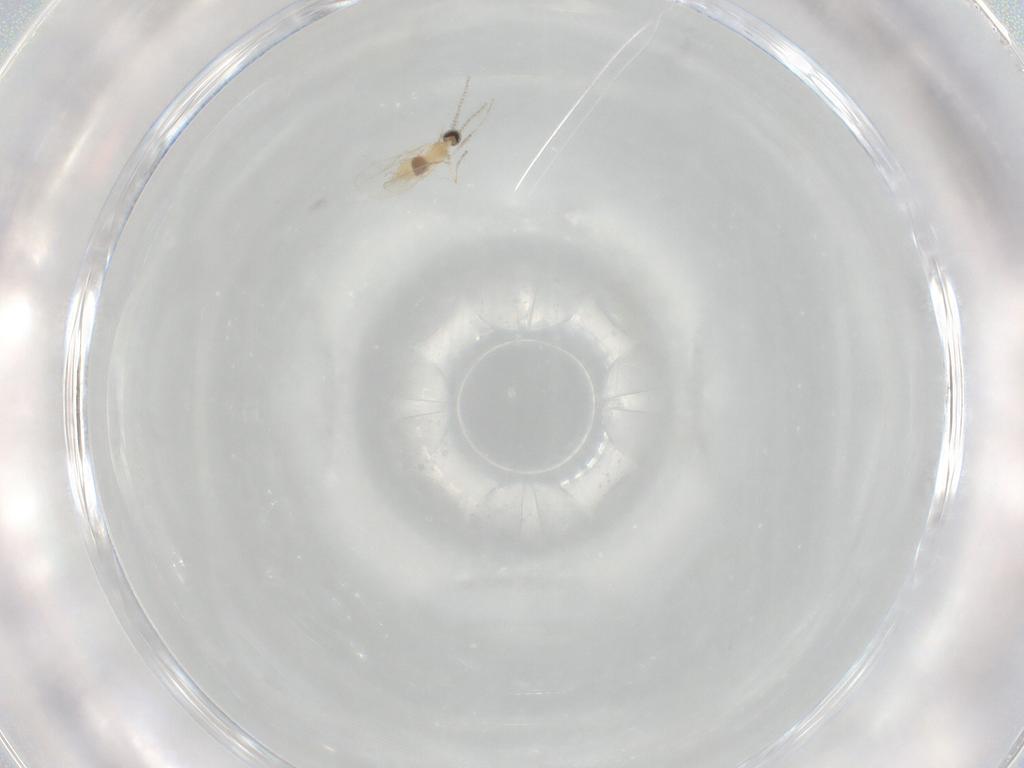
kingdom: Animalia
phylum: Arthropoda
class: Insecta
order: Diptera
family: Cecidomyiidae
